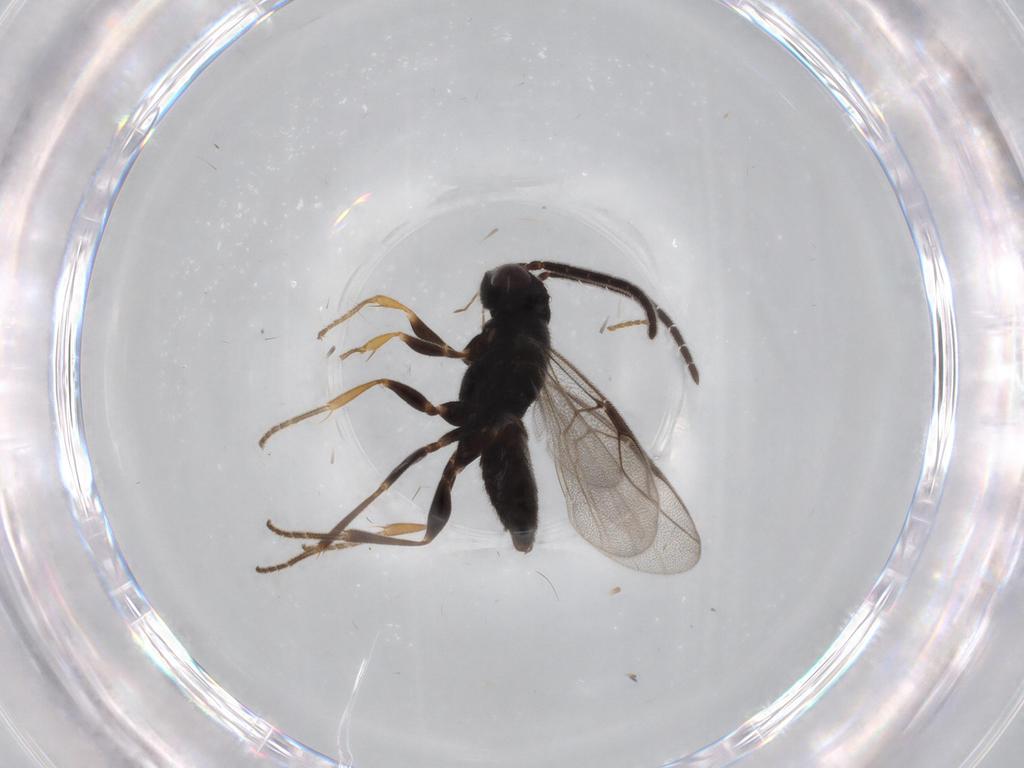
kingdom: Animalia
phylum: Arthropoda
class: Insecta
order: Hymenoptera
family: Dryinidae
